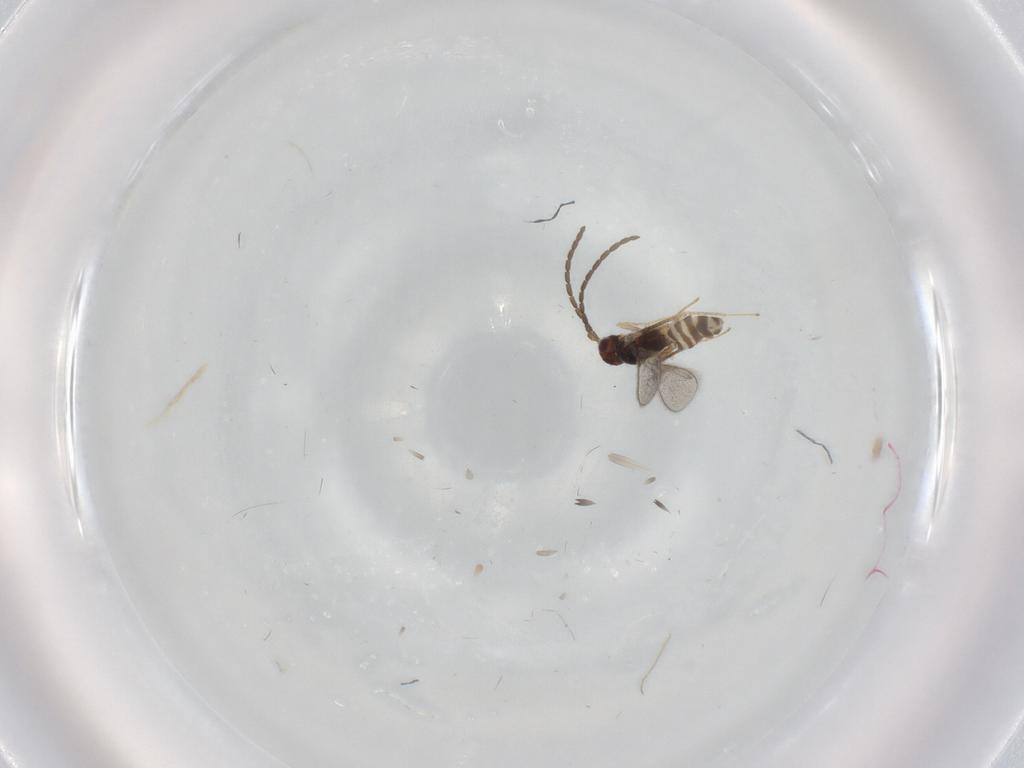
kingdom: Animalia
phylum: Arthropoda
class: Insecta
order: Hymenoptera
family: Mymaridae
